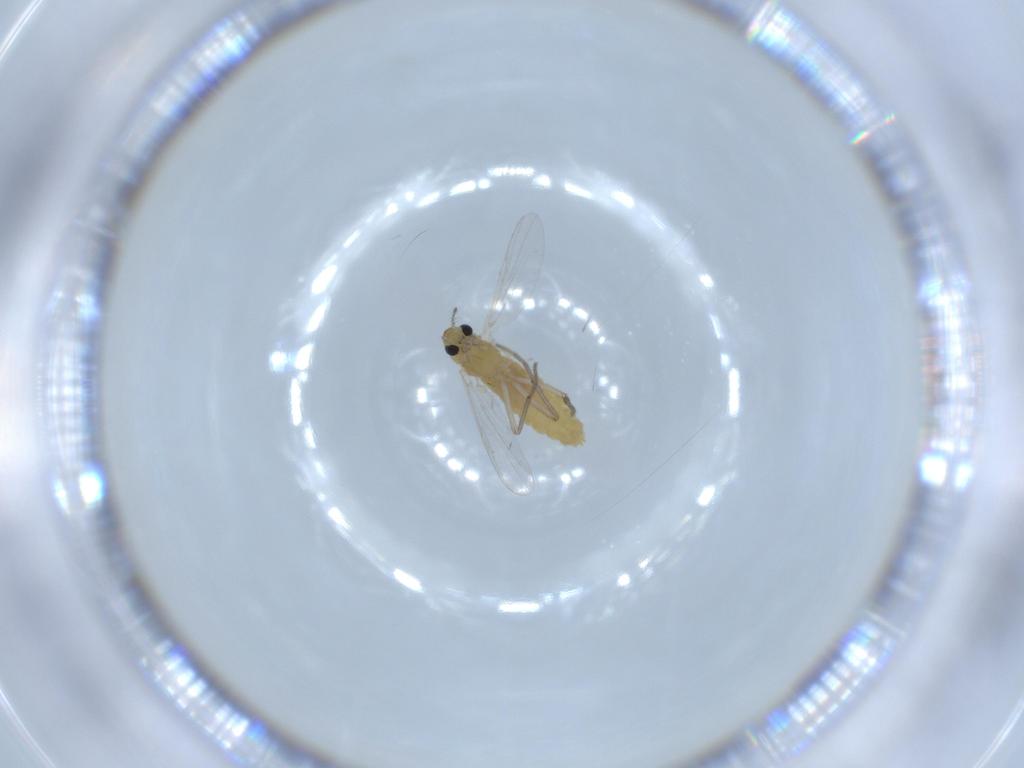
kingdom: Animalia
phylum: Arthropoda
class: Insecta
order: Diptera
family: Chironomidae
